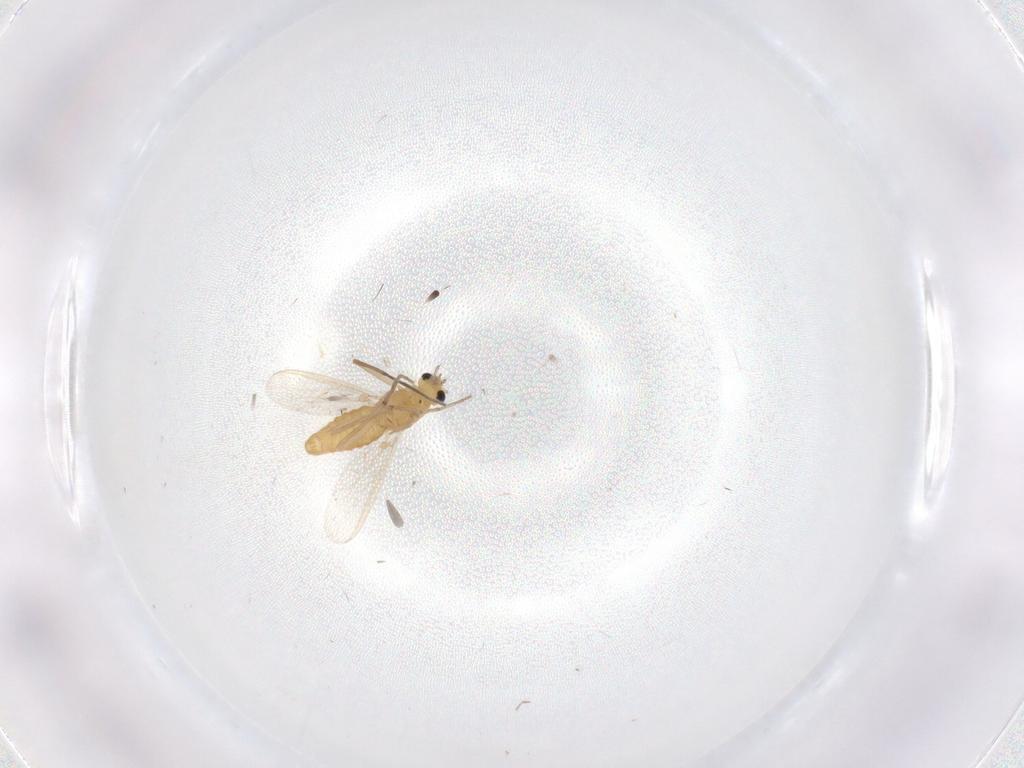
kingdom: Animalia
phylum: Arthropoda
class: Insecta
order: Diptera
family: Chironomidae
